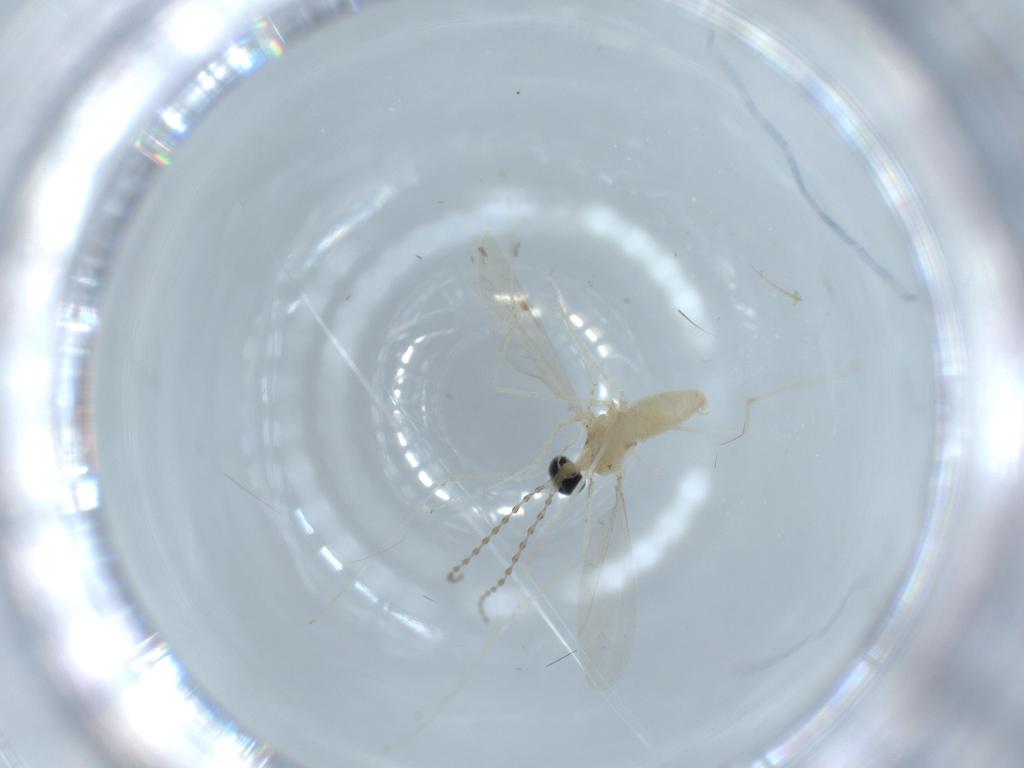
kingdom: Animalia
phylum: Arthropoda
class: Insecta
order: Diptera
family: Cecidomyiidae
